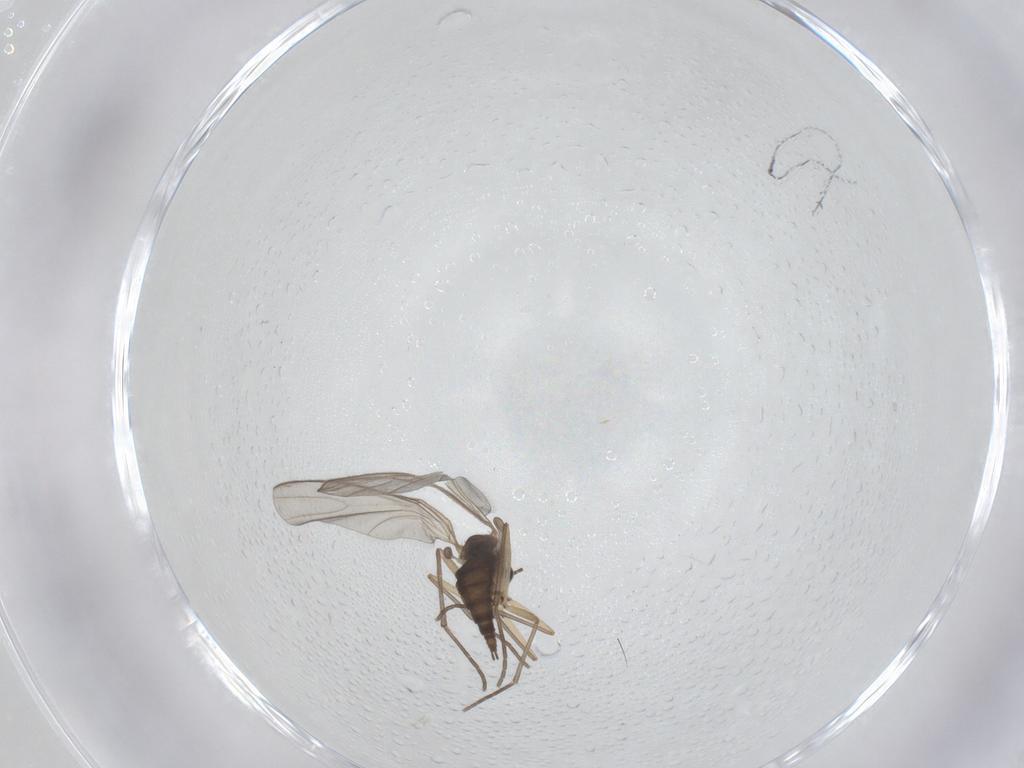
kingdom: Animalia
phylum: Arthropoda
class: Insecta
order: Diptera
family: Sciaridae
